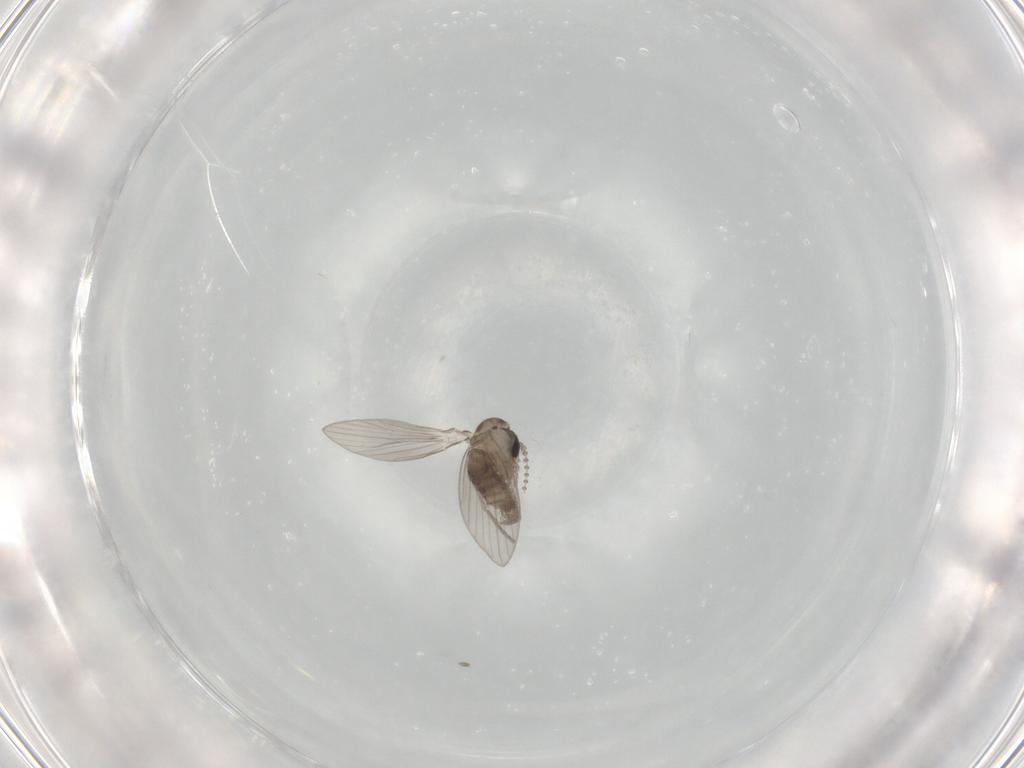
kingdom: Animalia
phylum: Arthropoda
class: Insecta
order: Diptera
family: Psychodidae
